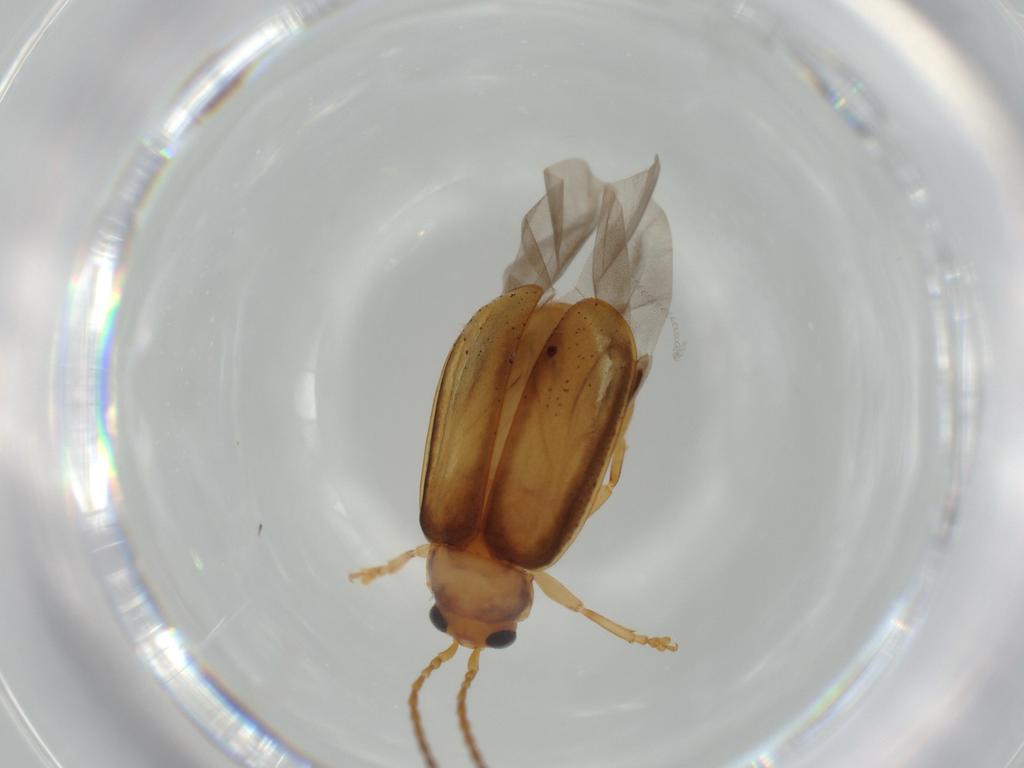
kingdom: Animalia
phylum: Arthropoda
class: Insecta
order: Coleoptera
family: Chrysomelidae
